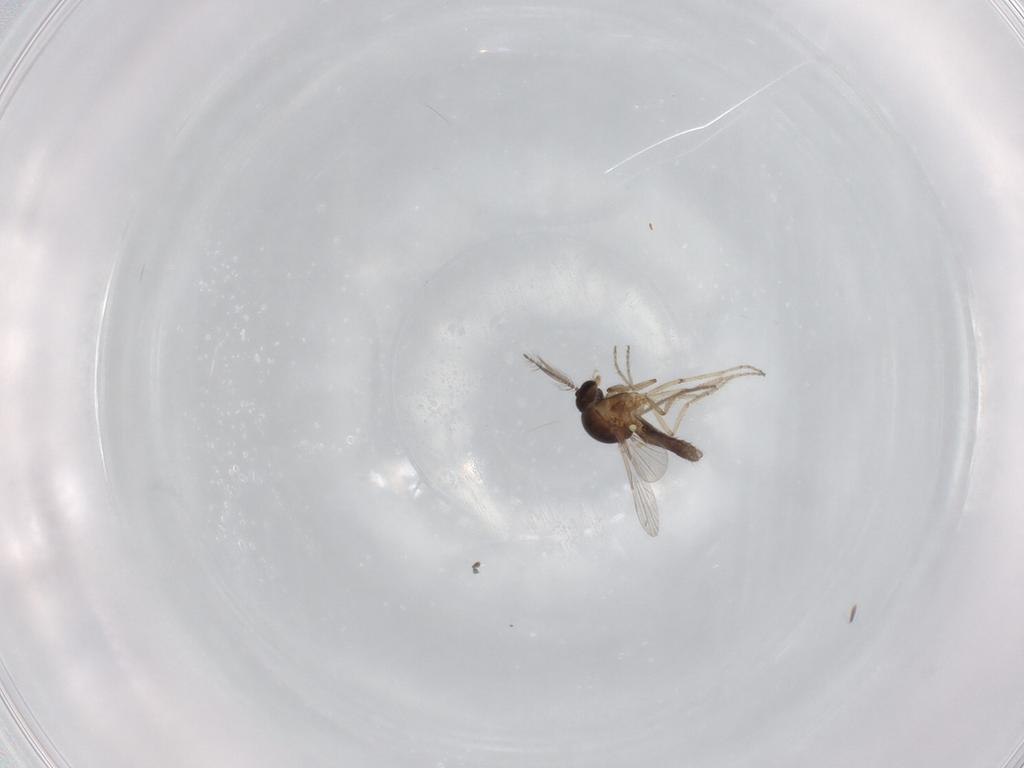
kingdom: Animalia
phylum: Arthropoda
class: Insecta
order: Diptera
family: Ceratopogonidae
